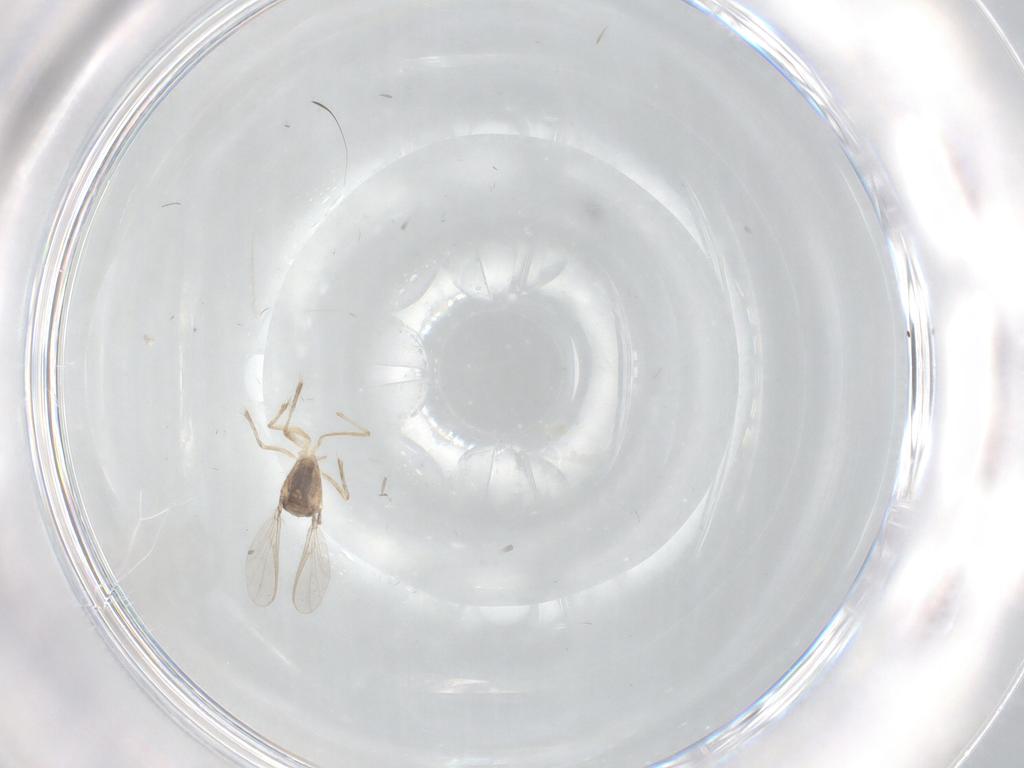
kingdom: Animalia
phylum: Arthropoda
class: Insecta
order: Diptera
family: Chironomidae
